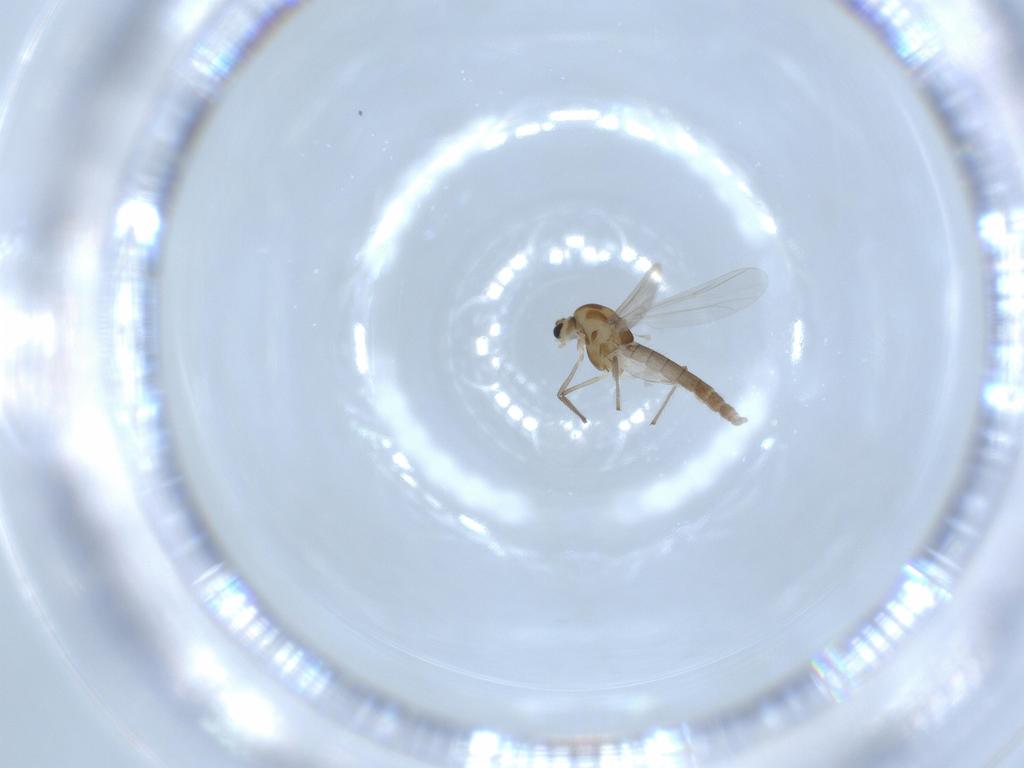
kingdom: Animalia
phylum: Arthropoda
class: Insecta
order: Diptera
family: Chironomidae
